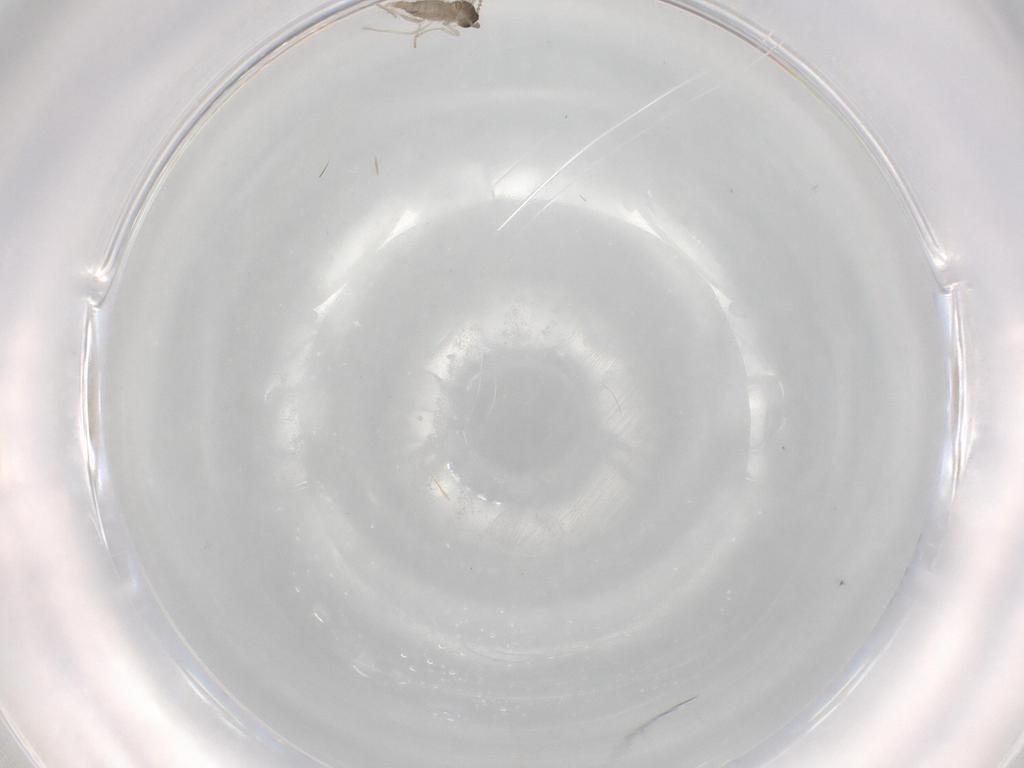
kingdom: Animalia
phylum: Arthropoda
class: Insecta
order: Diptera
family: Cecidomyiidae
